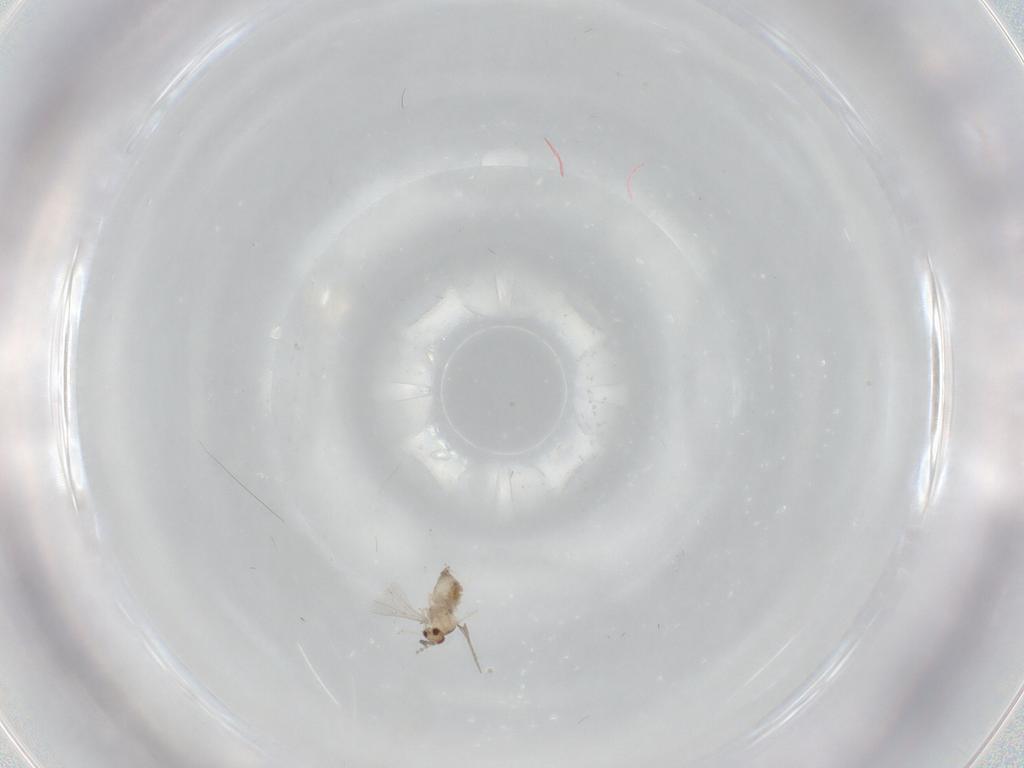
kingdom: Animalia
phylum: Arthropoda
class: Insecta
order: Diptera
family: Cecidomyiidae
